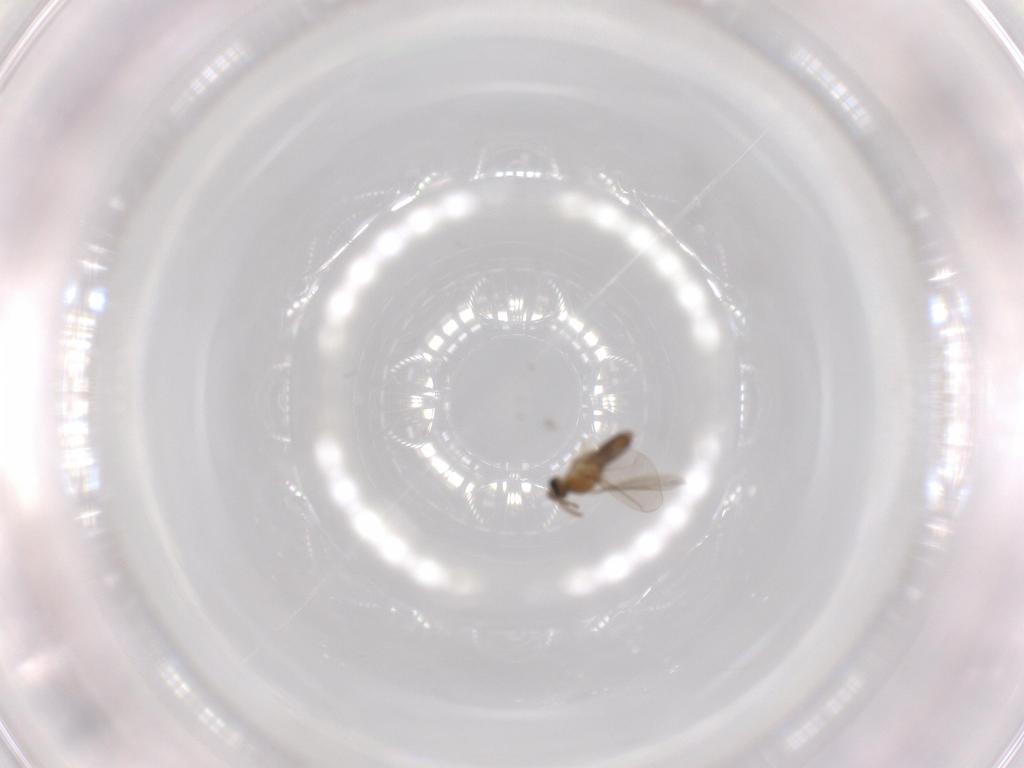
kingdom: Animalia
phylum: Arthropoda
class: Insecta
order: Diptera
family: Cecidomyiidae
